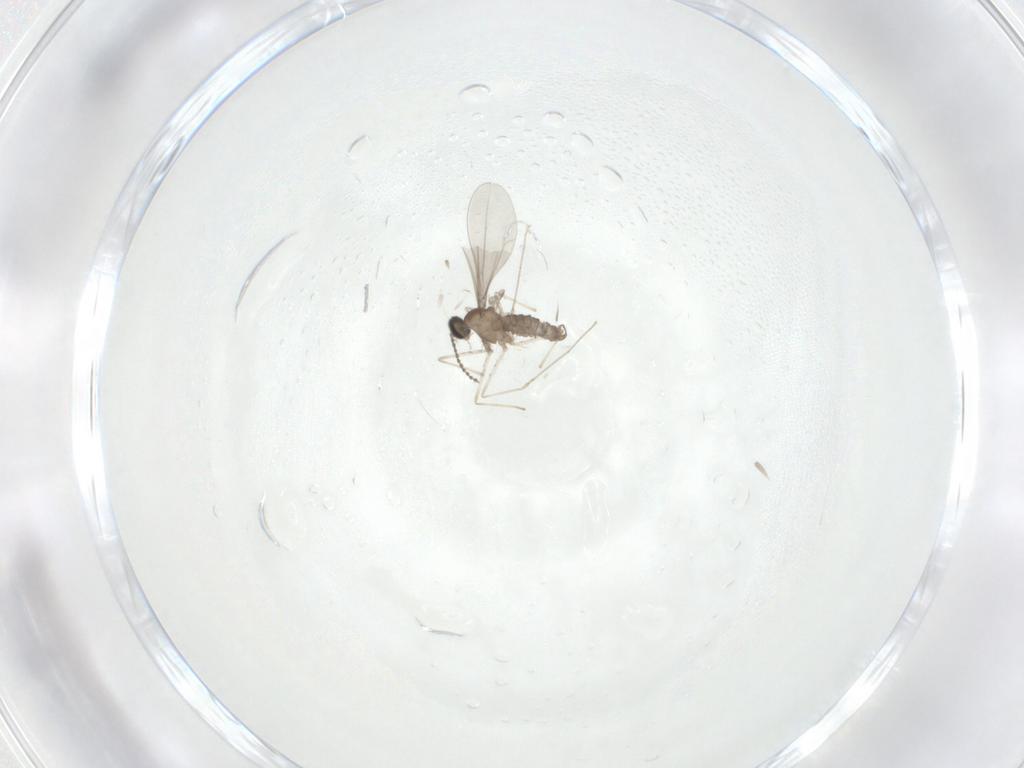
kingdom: Animalia
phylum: Arthropoda
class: Insecta
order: Diptera
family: Cecidomyiidae
